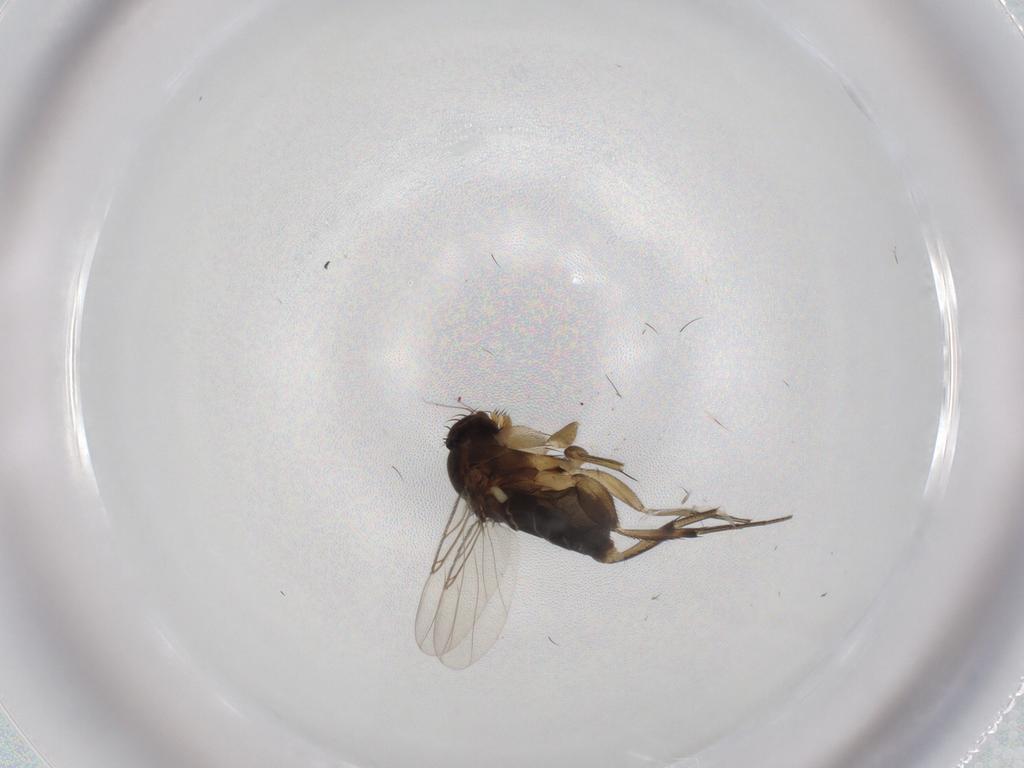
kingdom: Animalia
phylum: Arthropoda
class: Insecta
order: Diptera
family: Phoridae
